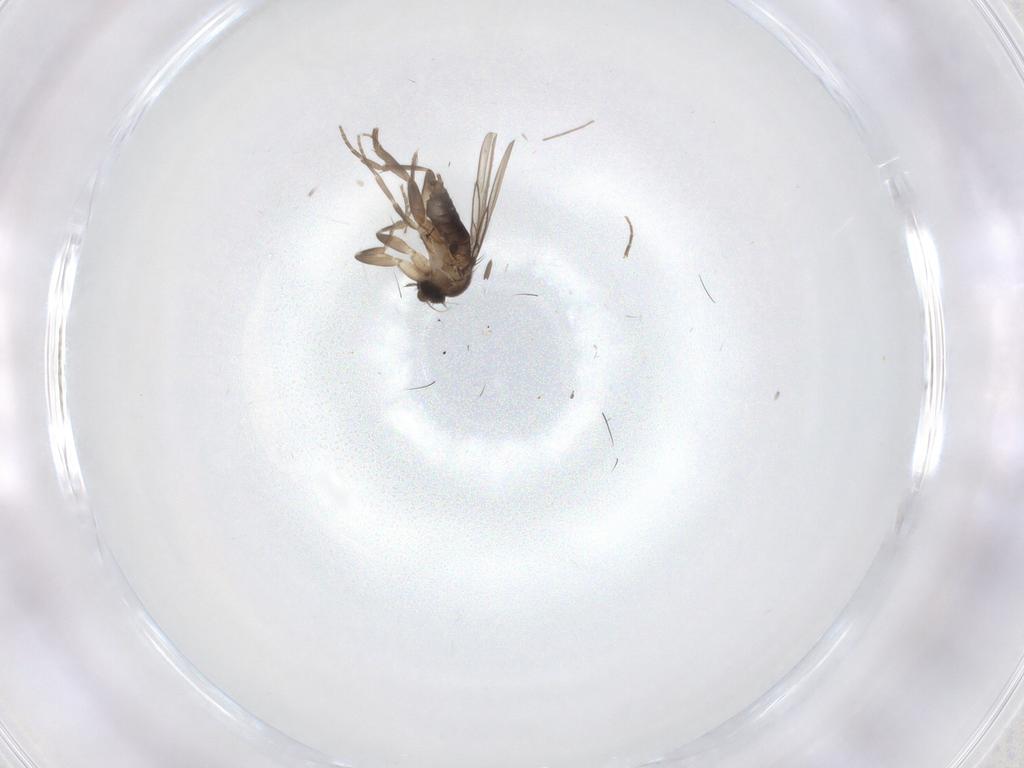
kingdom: Animalia
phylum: Arthropoda
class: Insecta
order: Diptera
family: Ceratopogonidae
